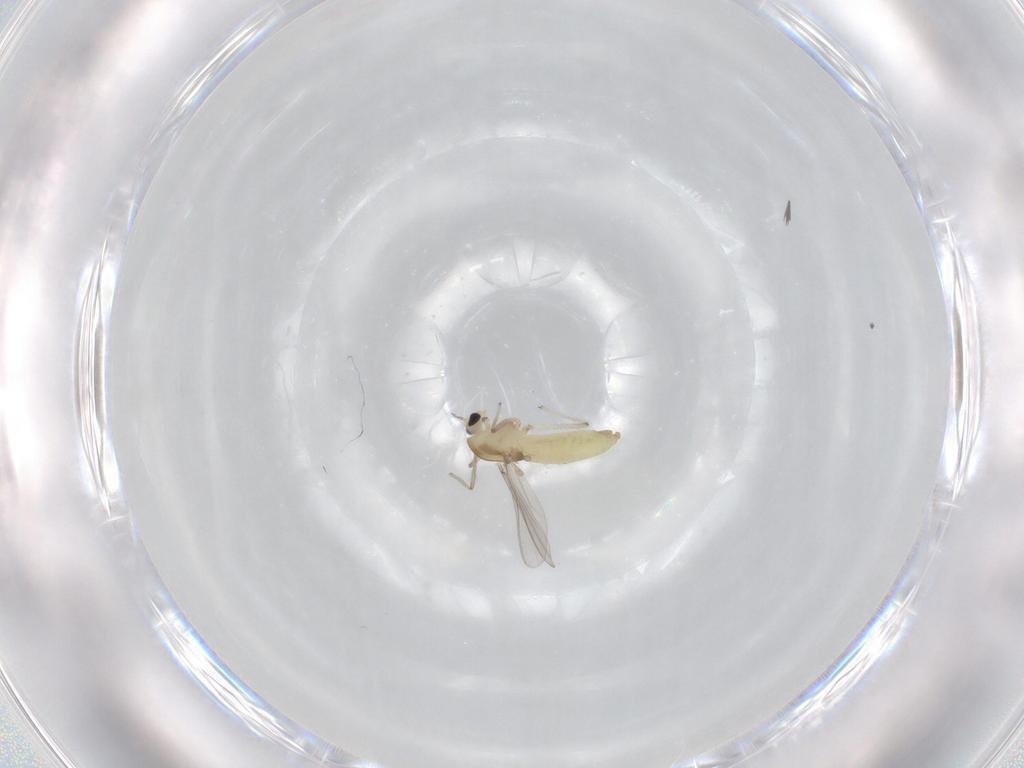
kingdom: Animalia
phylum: Arthropoda
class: Insecta
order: Diptera
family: Chironomidae
